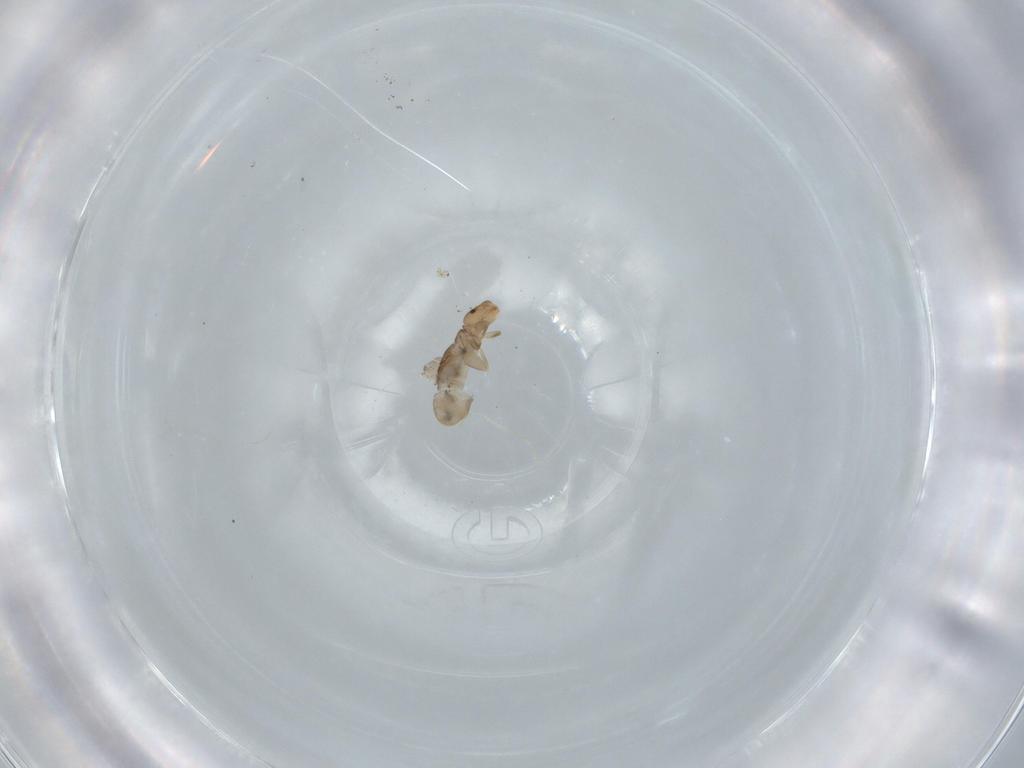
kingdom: Animalia
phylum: Arthropoda
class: Insecta
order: Psocodea
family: Liposcelididae
